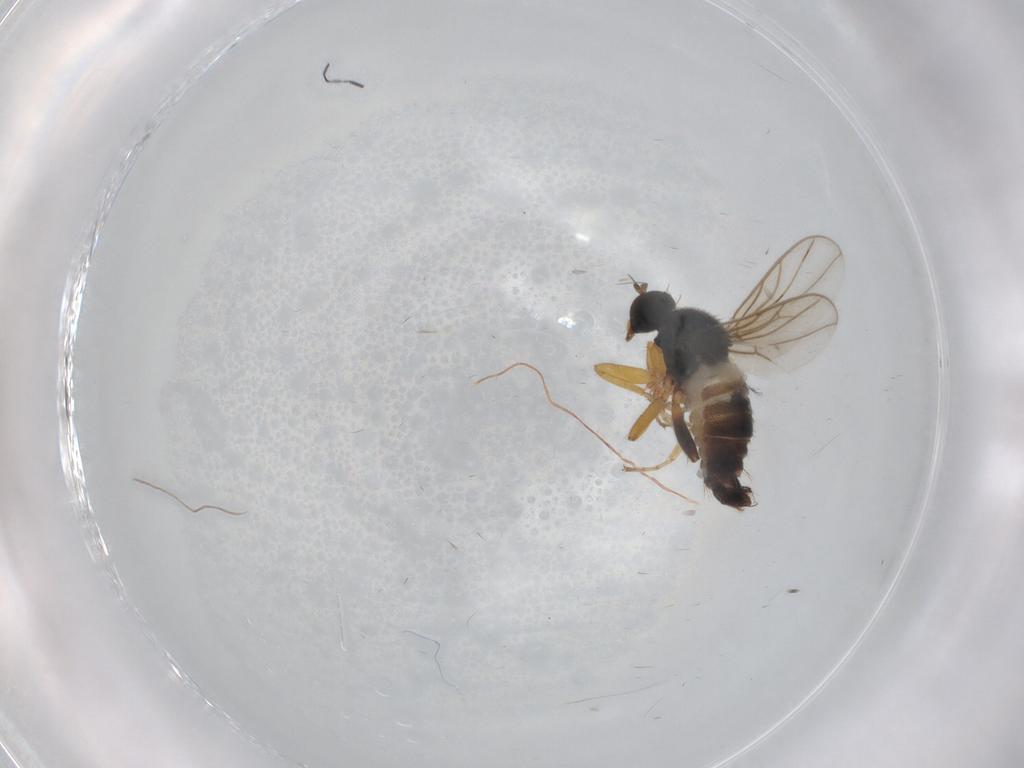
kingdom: Animalia
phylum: Arthropoda
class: Insecta
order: Diptera
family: Hybotidae
